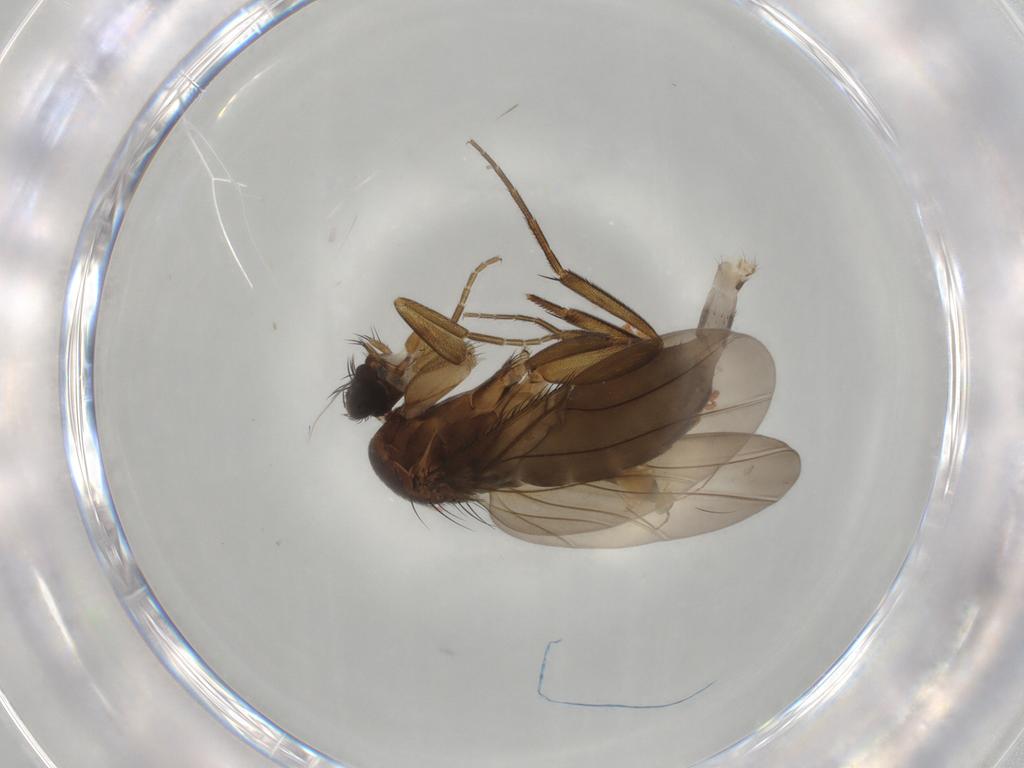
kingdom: Animalia
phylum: Arthropoda
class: Insecta
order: Diptera
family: Phoridae
